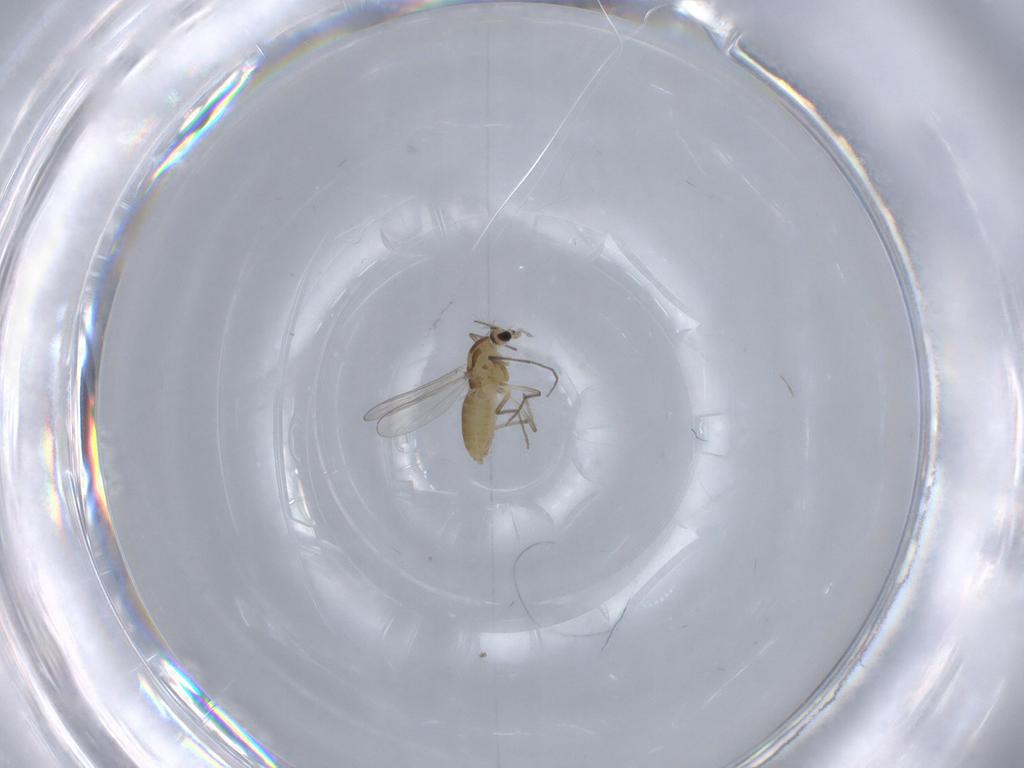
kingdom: Animalia
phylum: Arthropoda
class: Insecta
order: Diptera
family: Chironomidae
